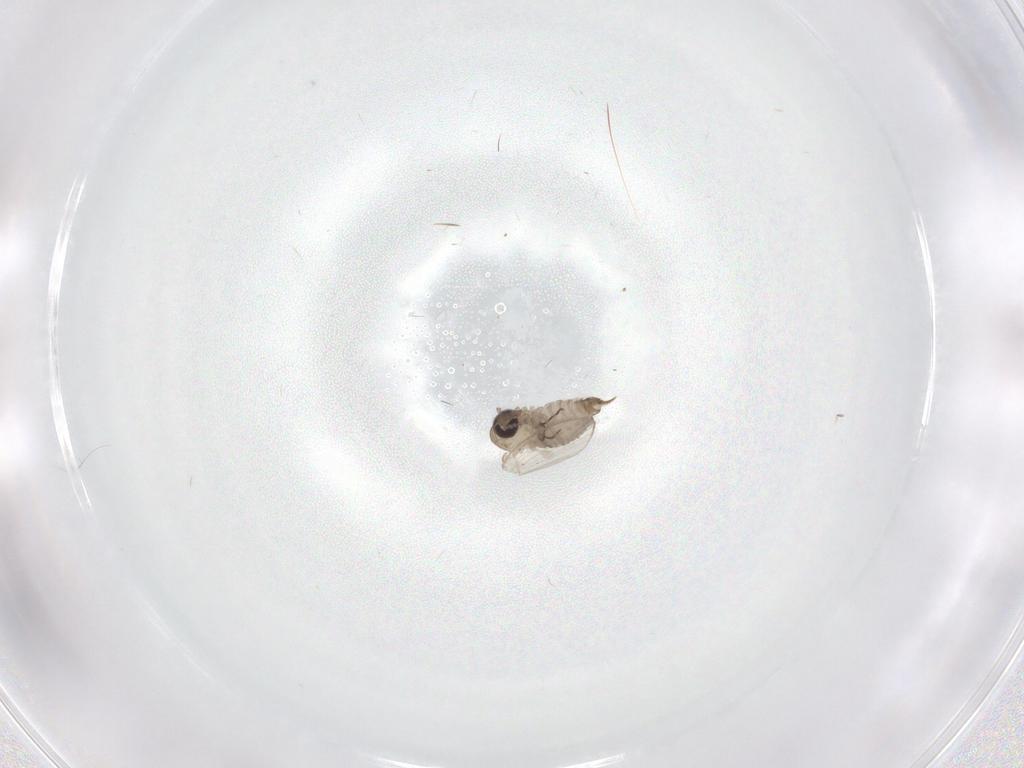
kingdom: Animalia
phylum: Arthropoda
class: Insecta
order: Diptera
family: Psychodidae
